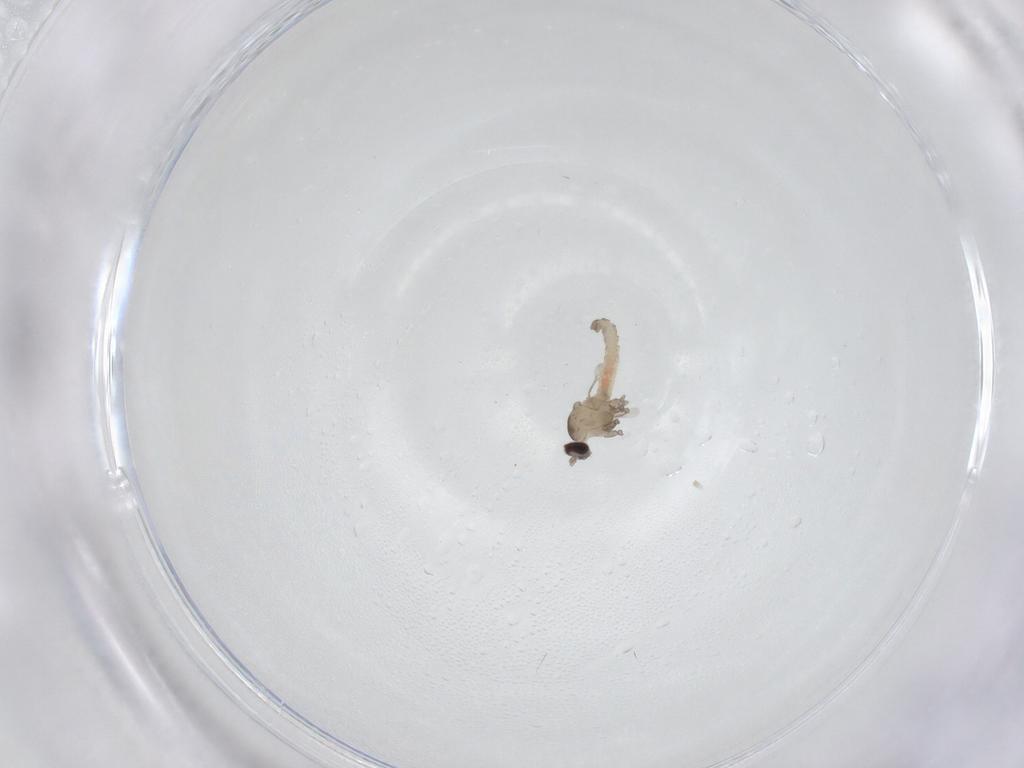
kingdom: Animalia
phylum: Arthropoda
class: Insecta
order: Diptera
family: Cecidomyiidae
